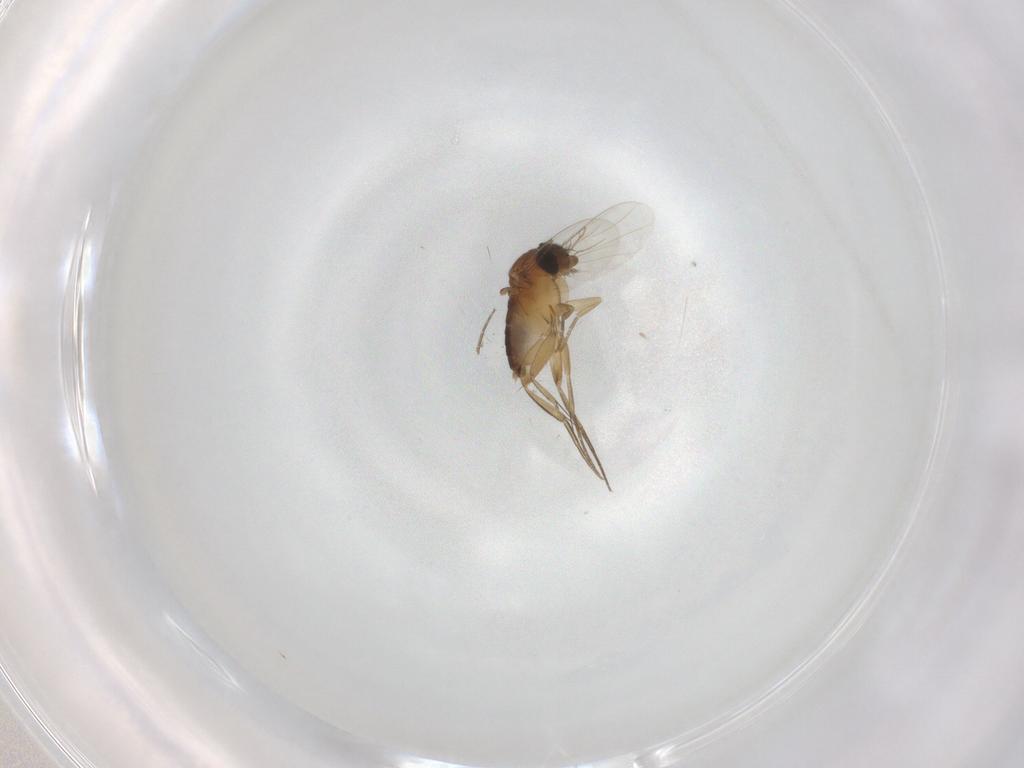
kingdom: Animalia
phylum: Arthropoda
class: Insecta
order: Diptera
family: Phoridae
